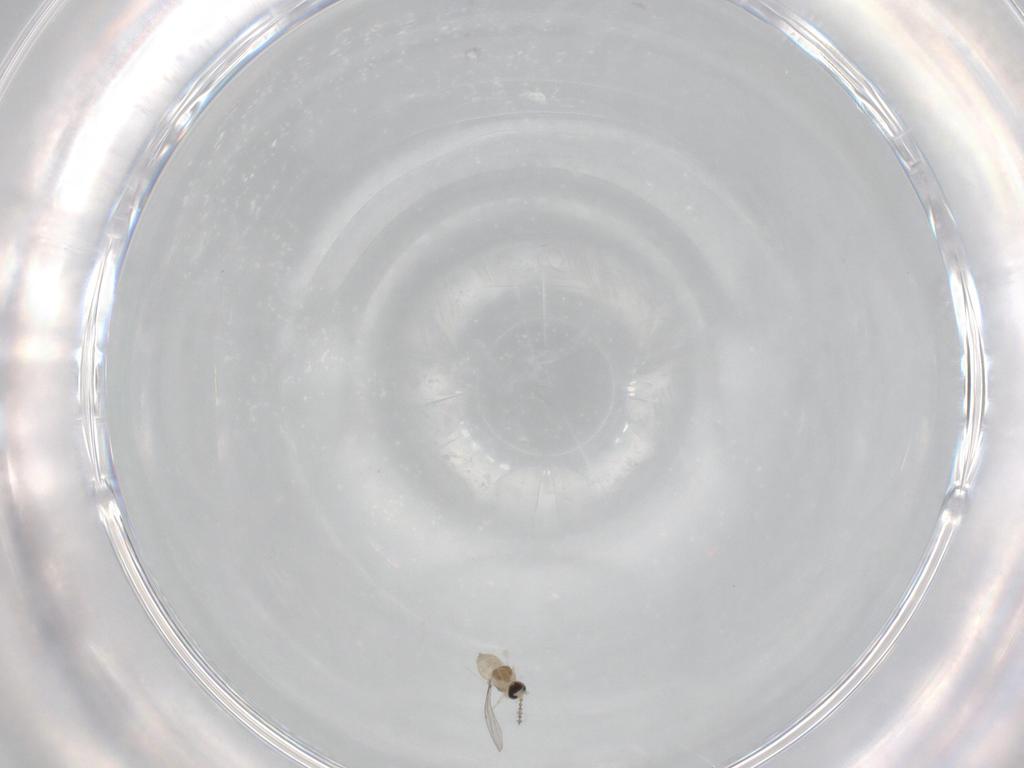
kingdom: Animalia
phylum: Arthropoda
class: Insecta
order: Diptera
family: Cecidomyiidae
